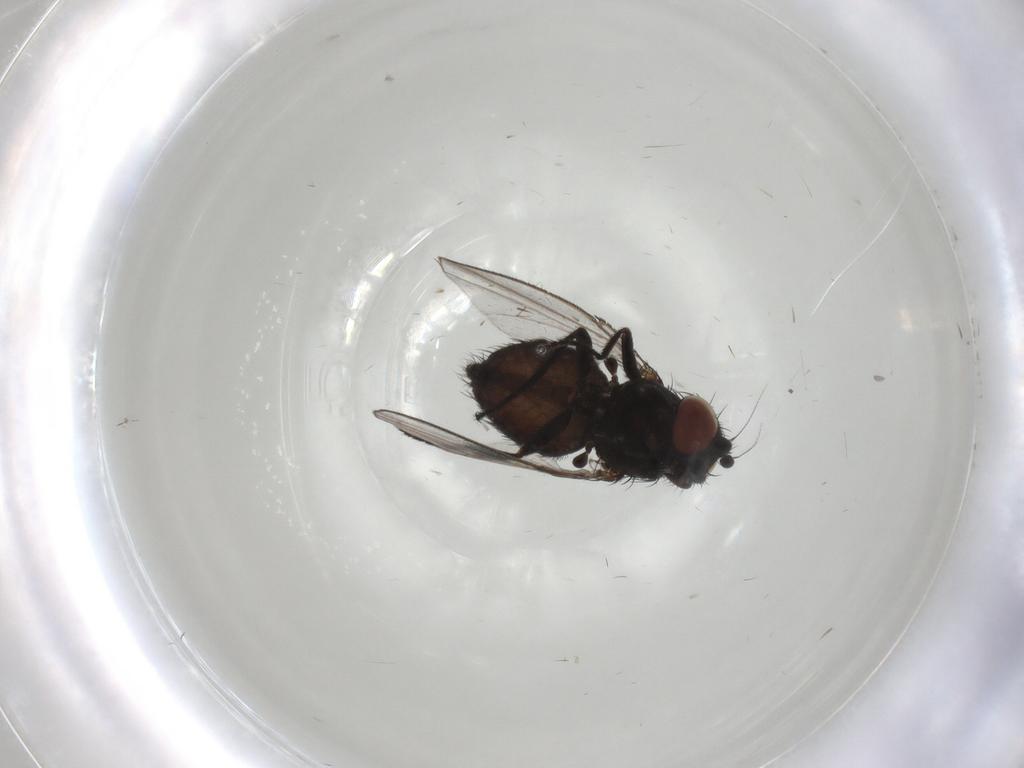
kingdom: Animalia
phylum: Arthropoda
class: Insecta
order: Diptera
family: Milichiidae
